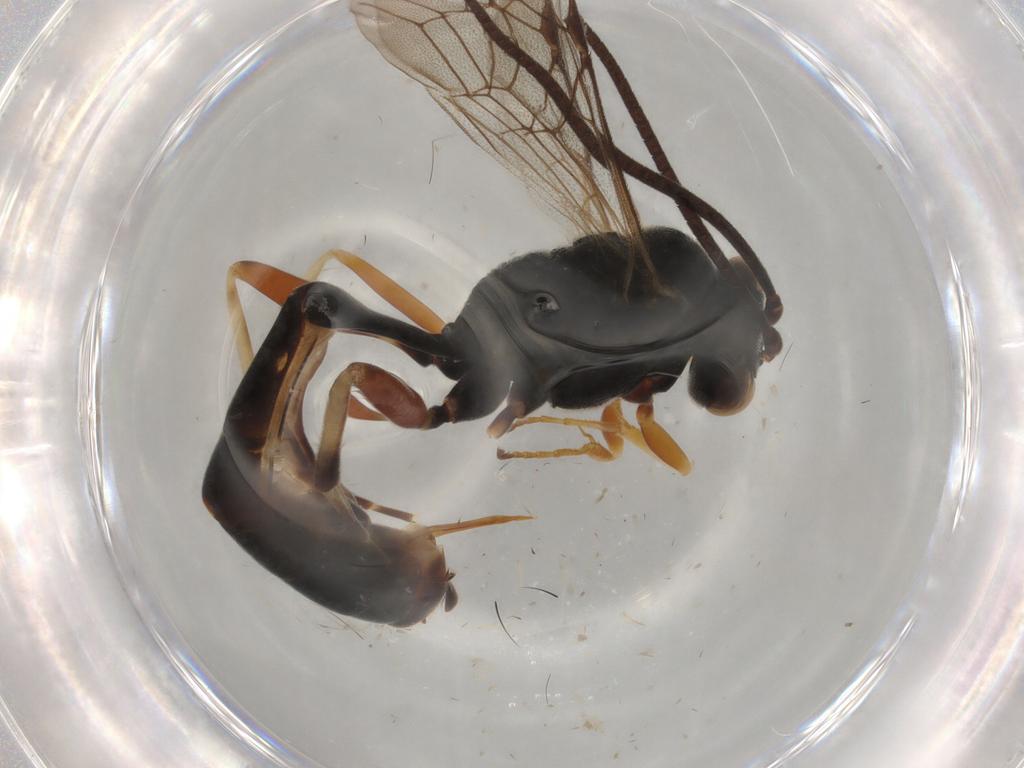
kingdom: Animalia
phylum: Arthropoda
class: Insecta
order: Hymenoptera
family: Ichneumonidae
